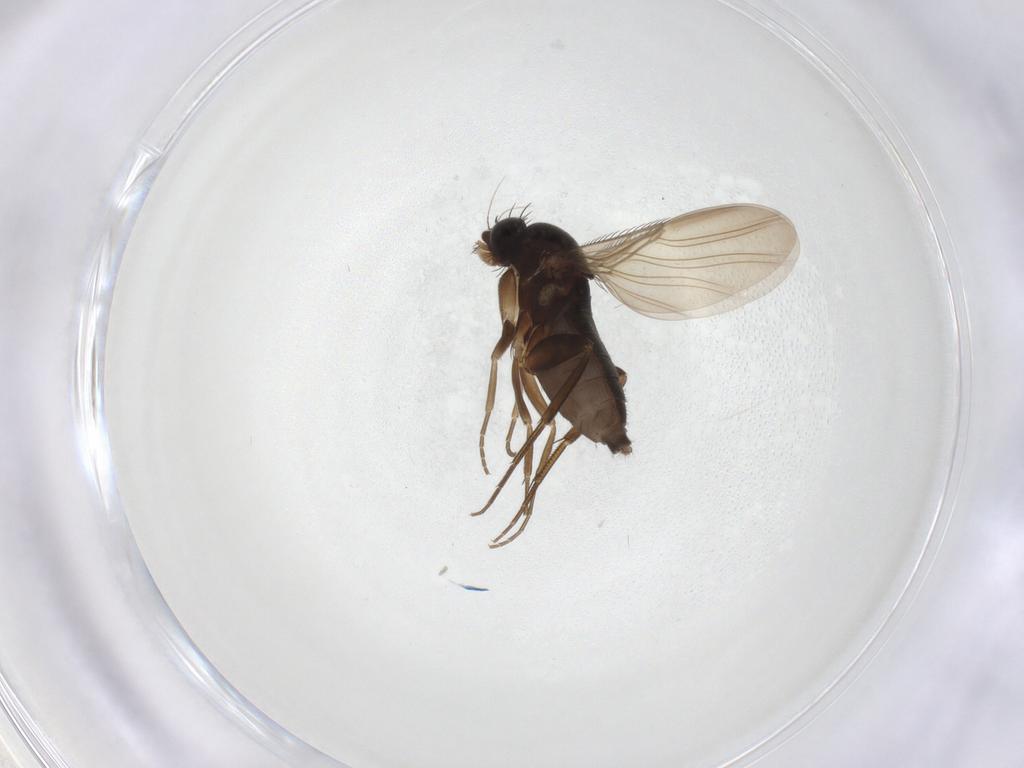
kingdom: Animalia
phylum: Arthropoda
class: Insecta
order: Diptera
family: Phoridae
